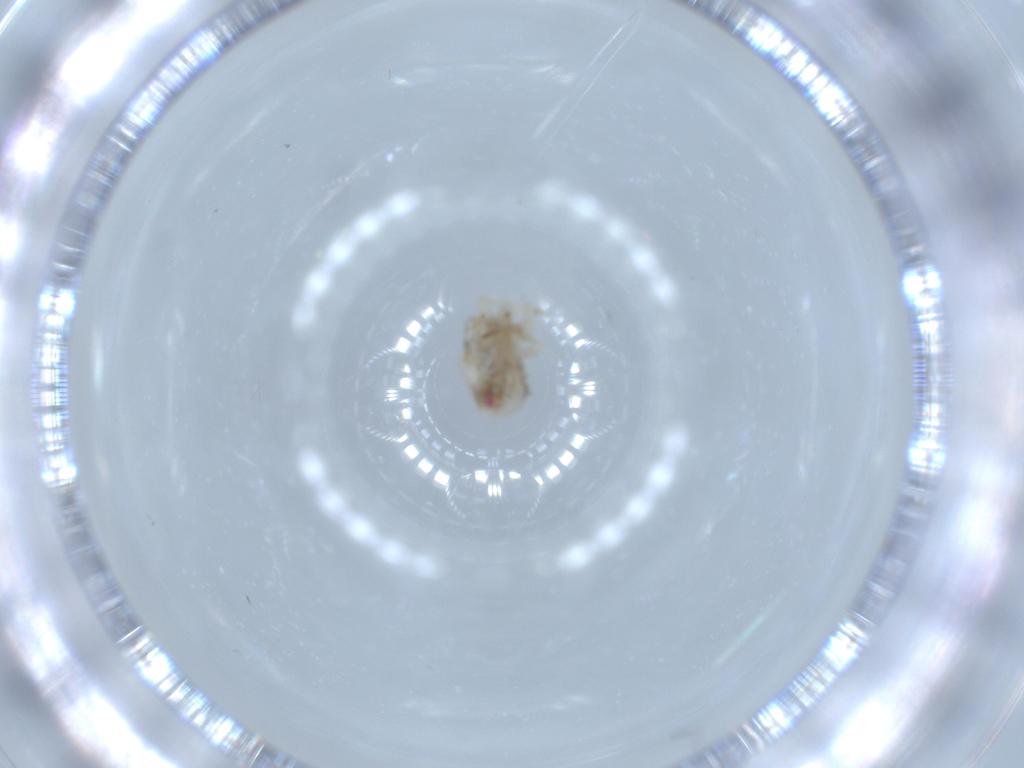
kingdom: Animalia
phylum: Arthropoda
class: Insecta
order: Hemiptera
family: Acanaloniidae
